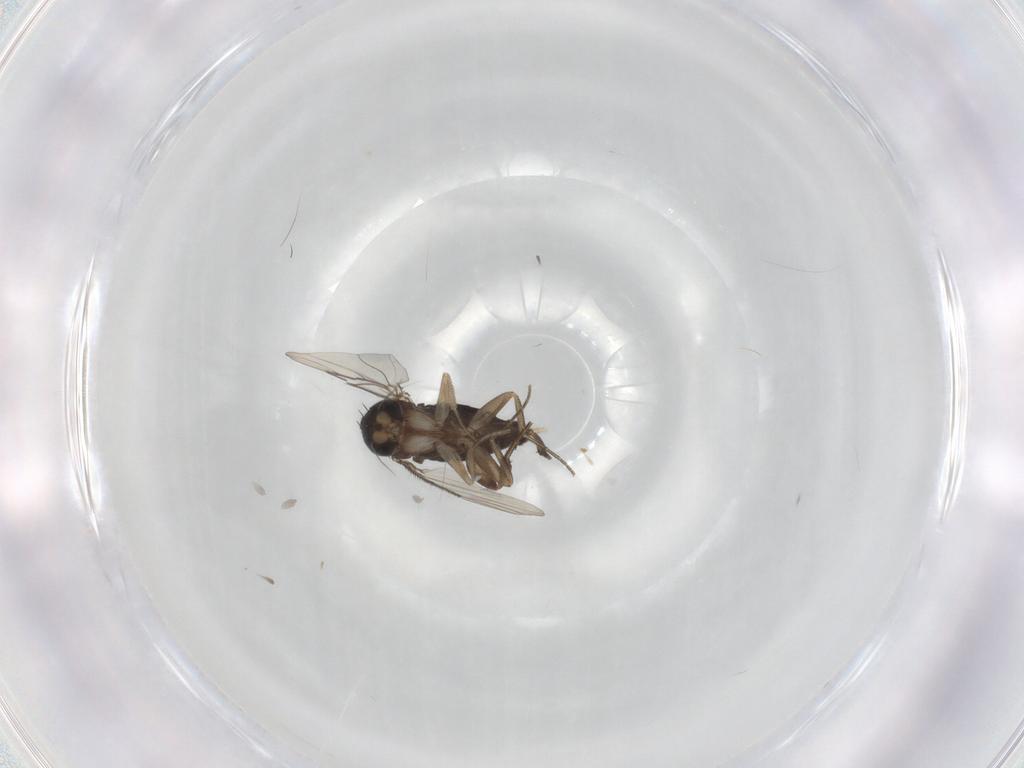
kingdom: Animalia
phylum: Arthropoda
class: Insecta
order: Diptera
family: Phoridae
